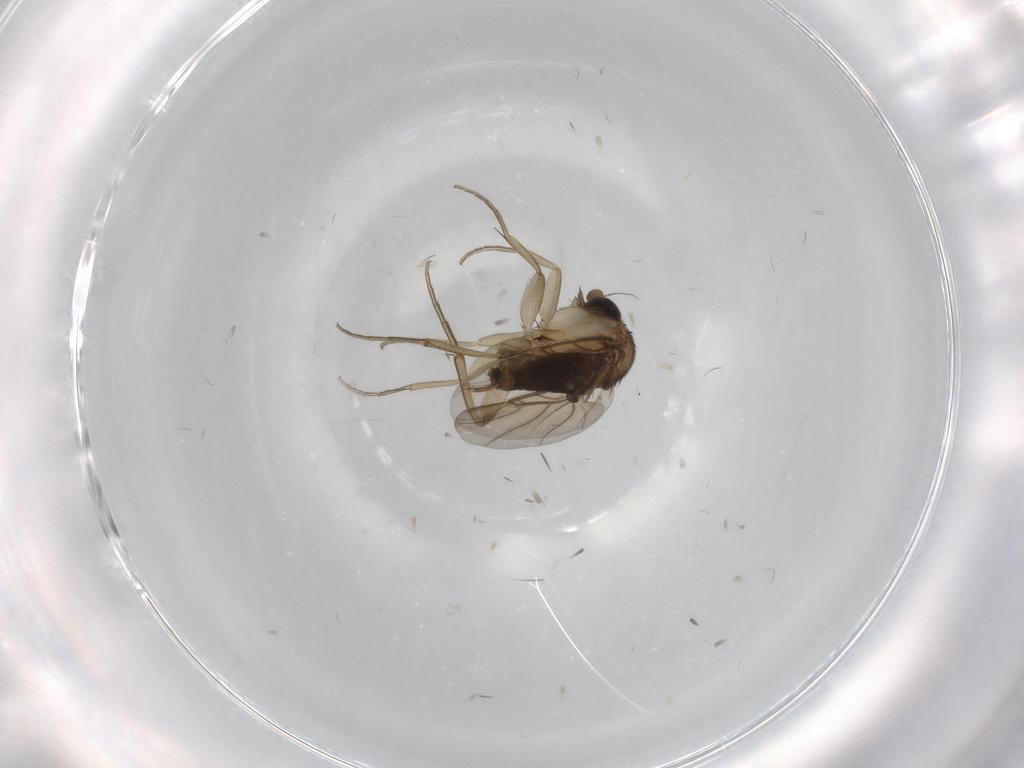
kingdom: Animalia
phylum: Arthropoda
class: Insecta
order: Diptera
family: Phoridae
